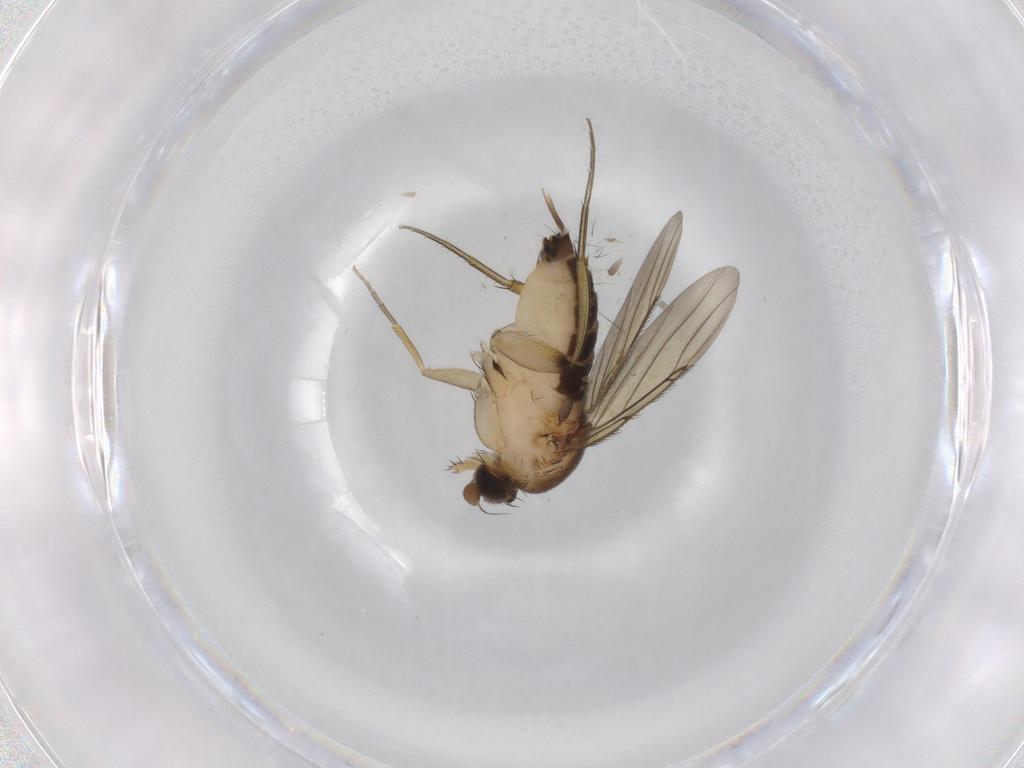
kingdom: Animalia
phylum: Arthropoda
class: Insecta
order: Diptera
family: Phoridae
